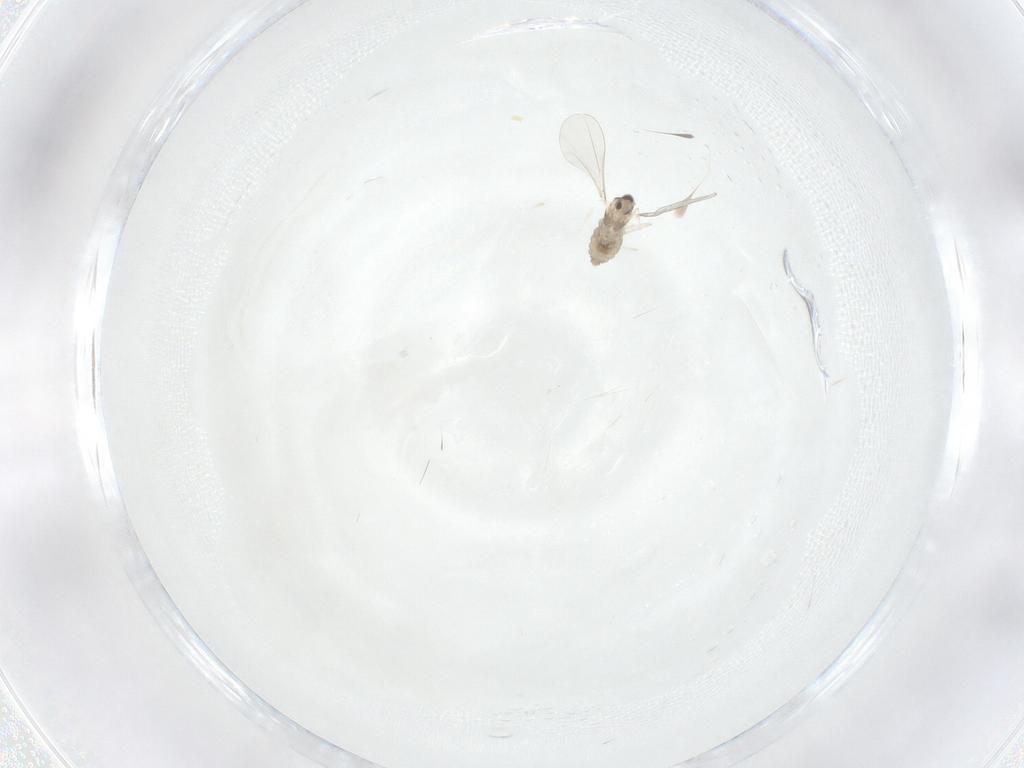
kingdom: Animalia
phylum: Arthropoda
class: Insecta
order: Diptera
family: Cecidomyiidae
